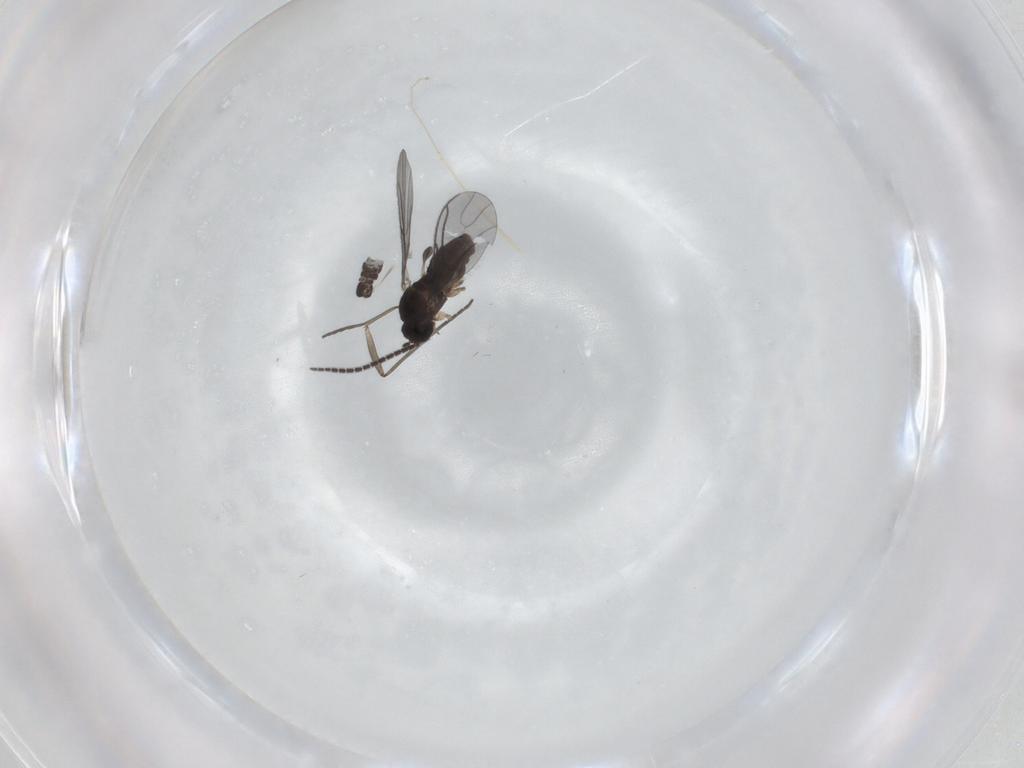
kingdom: Animalia
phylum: Arthropoda
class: Insecta
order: Diptera
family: Sciaridae
